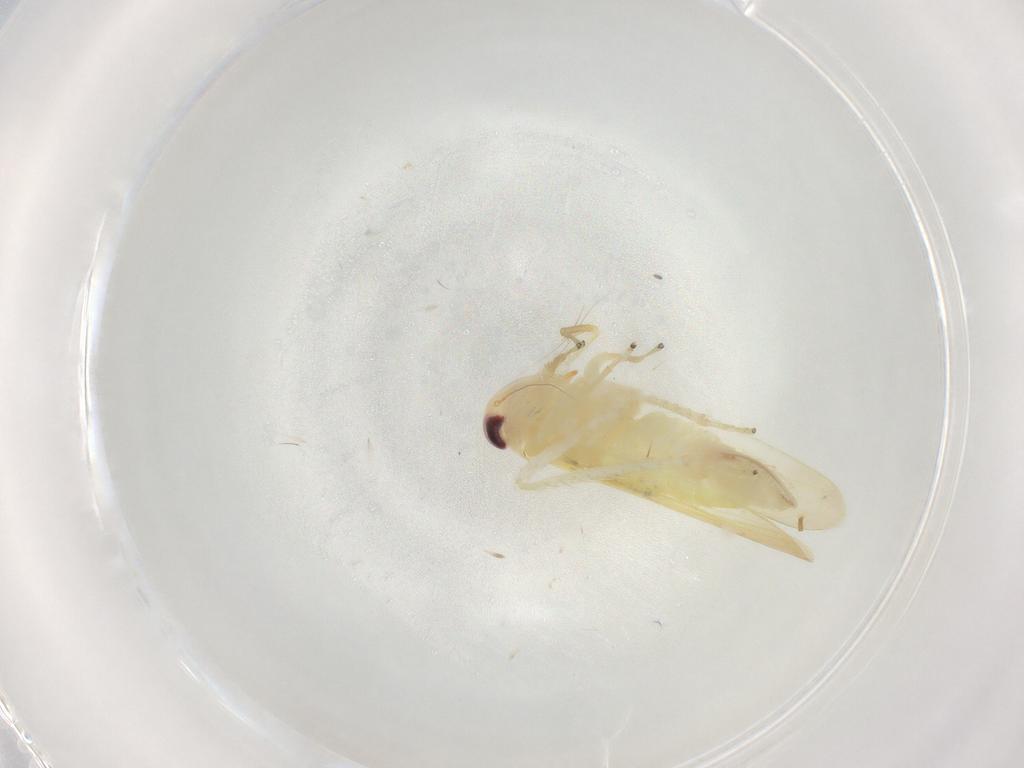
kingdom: Animalia
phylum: Arthropoda
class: Insecta
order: Hemiptera
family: Cicadellidae
